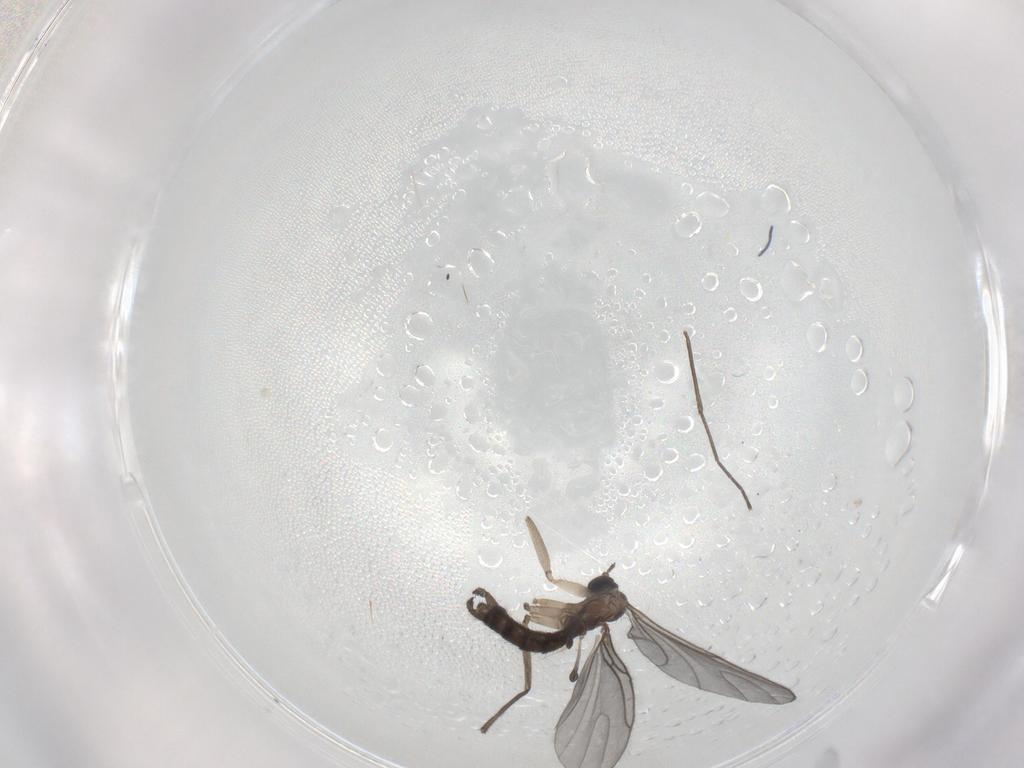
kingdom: Animalia
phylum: Arthropoda
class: Insecta
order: Diptera
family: Sciaridae
